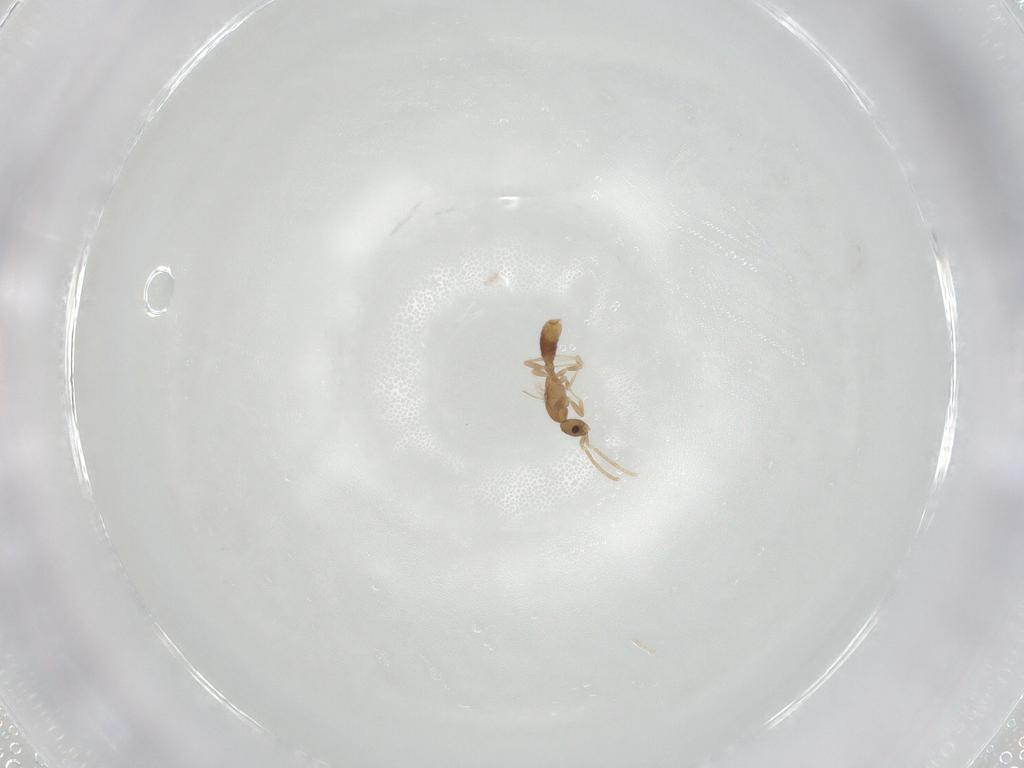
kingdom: Animalia
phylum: Arthropoda
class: Insecta
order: Hymenoptera
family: Formicidae
